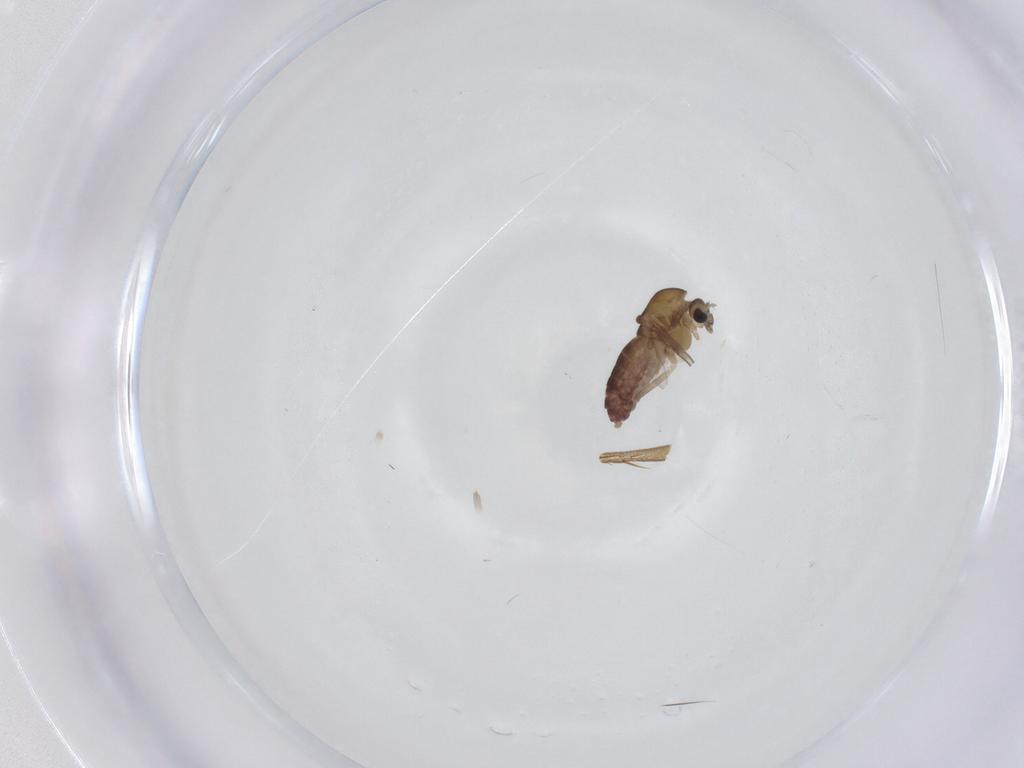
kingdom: Animalia
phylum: Arthropoda
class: Insecta
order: Diptera
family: Chironomidae
